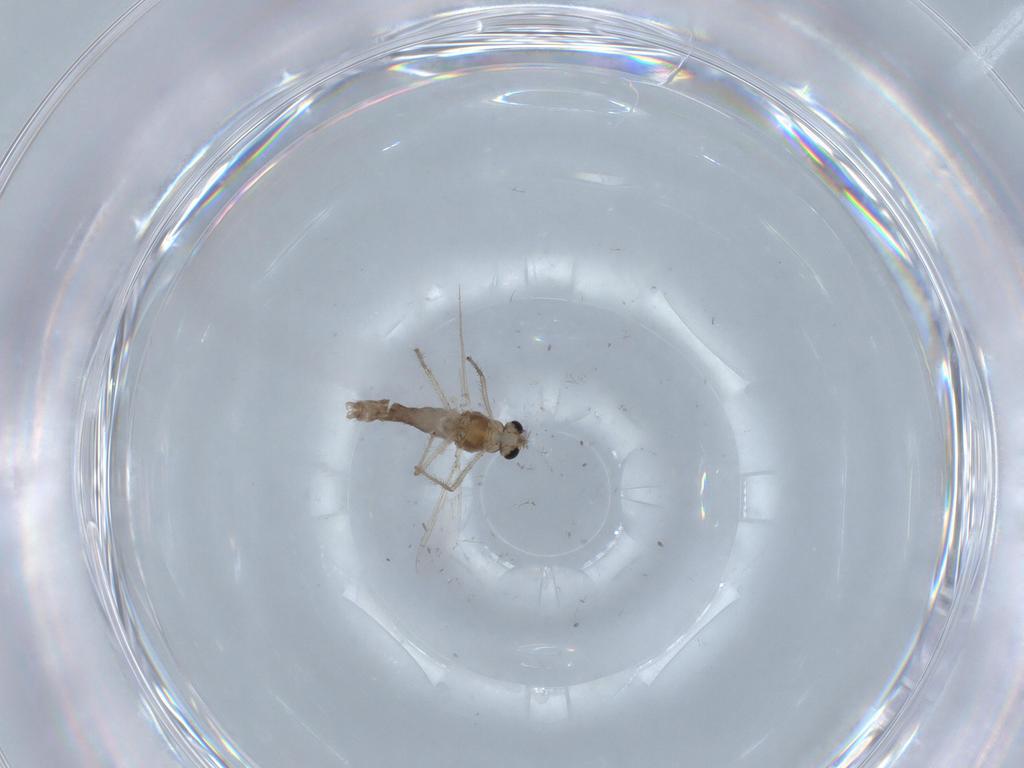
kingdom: Animalia
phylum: Arthropoda
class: Insecta
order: Diptera
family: Chironomidae
